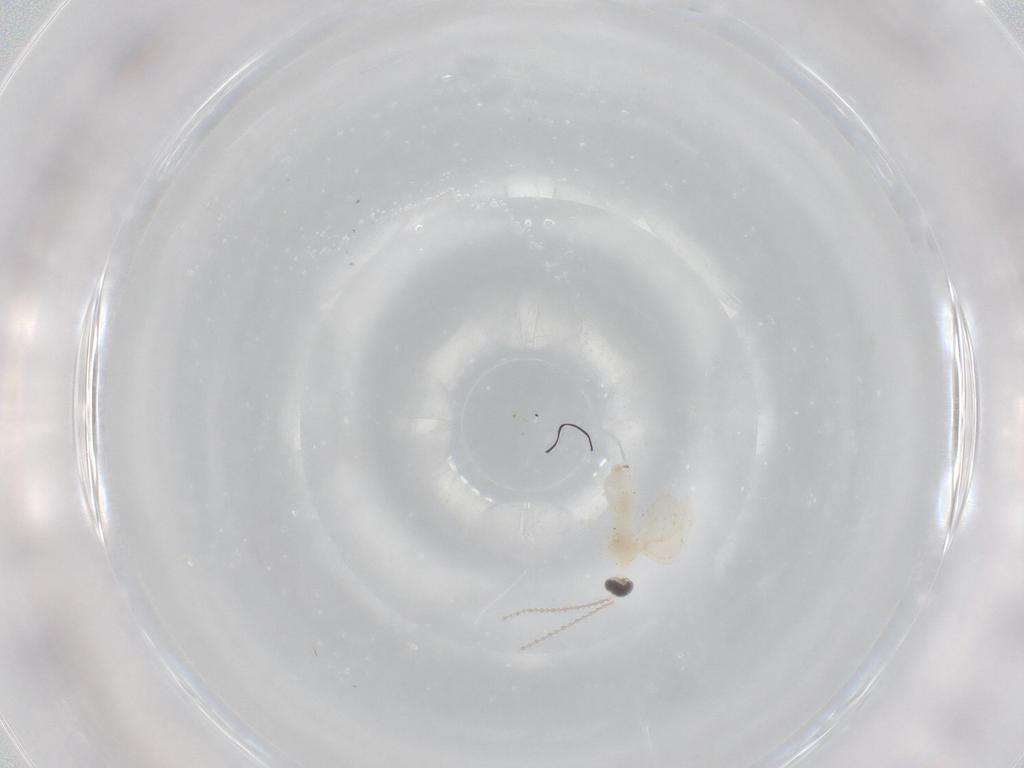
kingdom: Animalia
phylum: Arthropoda
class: Insecta
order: Diptera
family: Cecidomyiidae
